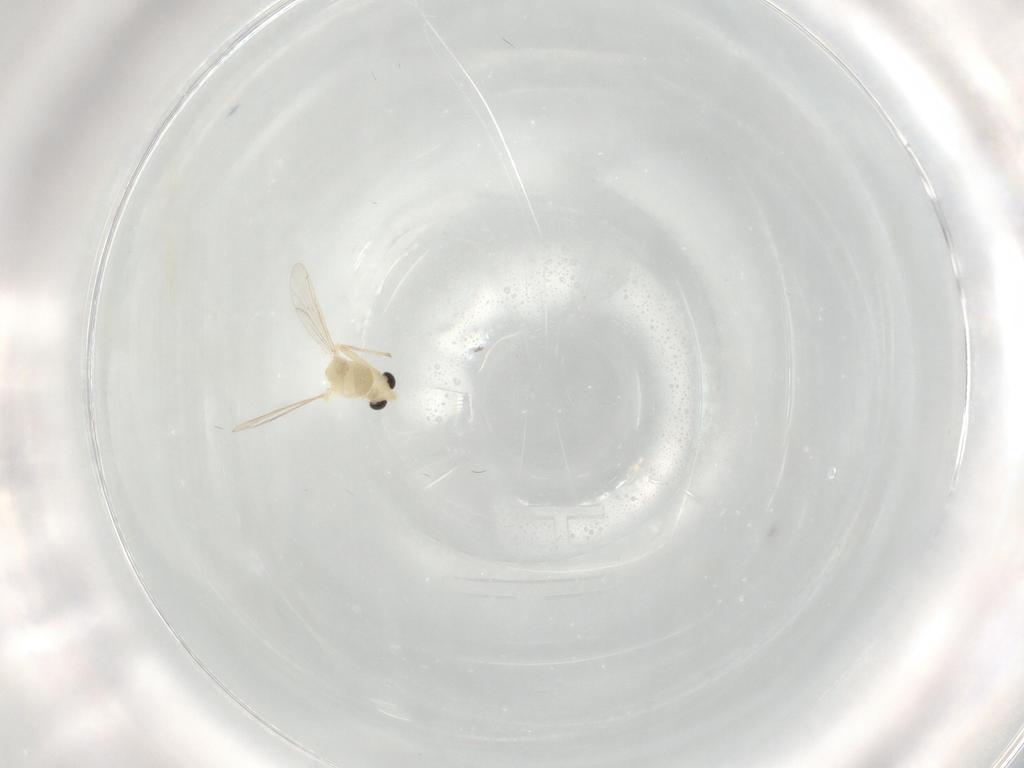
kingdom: Animalia
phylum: Arthropoda
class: Insecta
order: Diptera
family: Chironomidae
